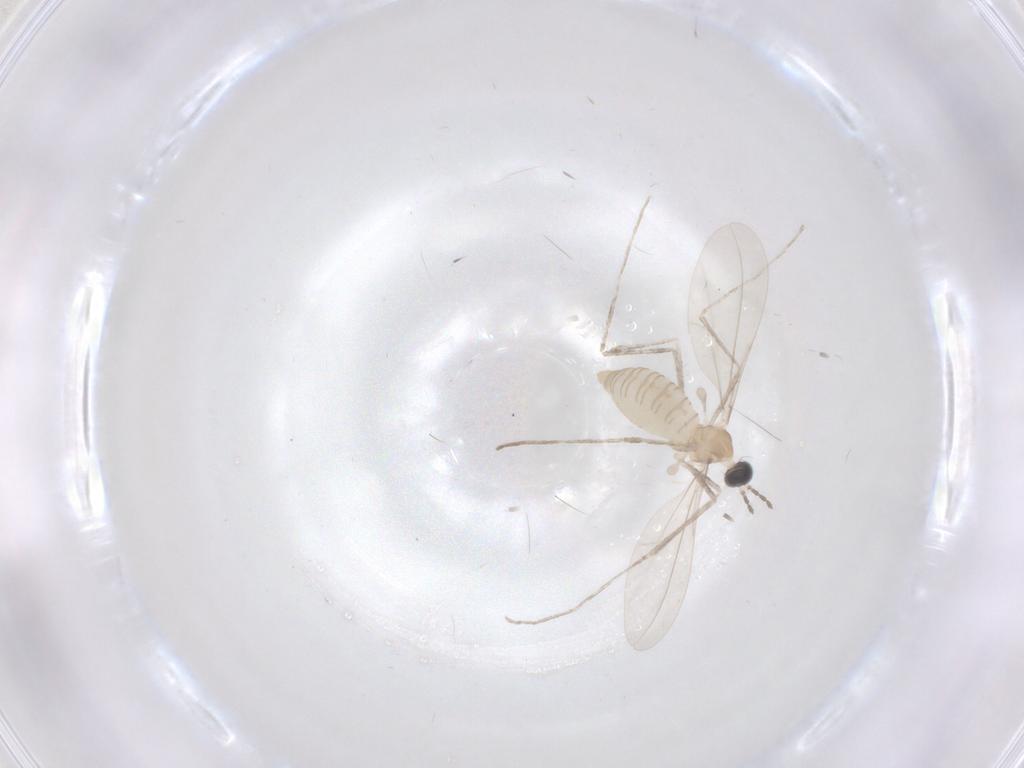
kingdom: Animalia
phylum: Arthropoda
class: Insecta
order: Diptera
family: Cecidomyiidae
